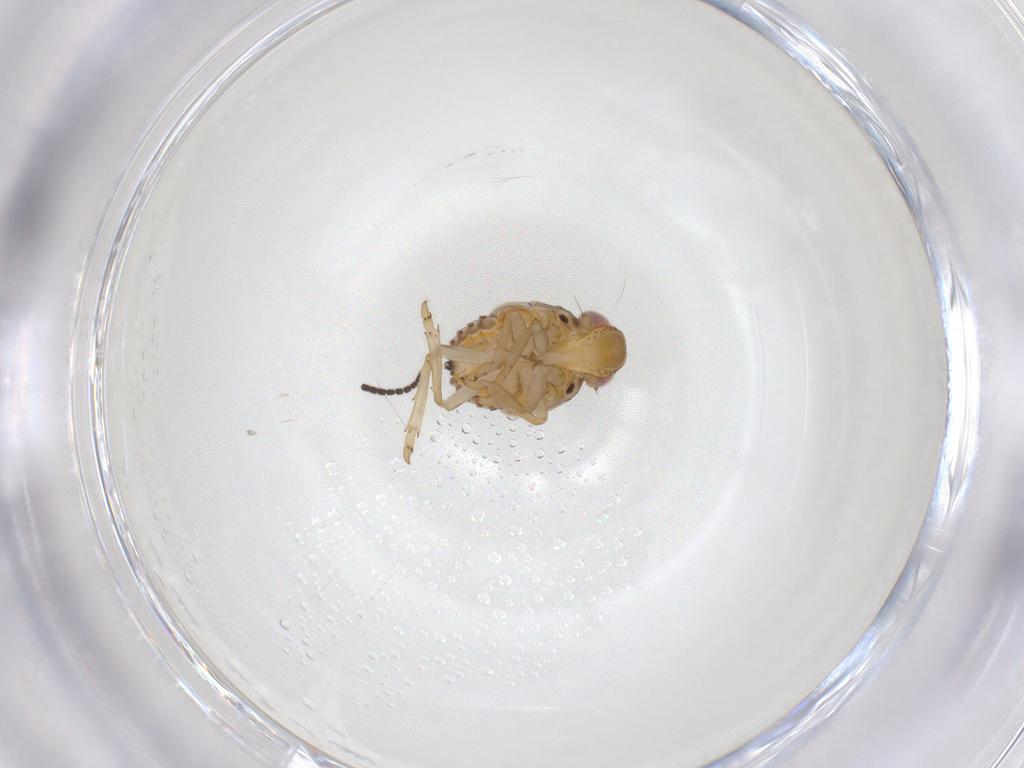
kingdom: Animalia
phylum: Arthropoda
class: Insecta
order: Hemiptera
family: Issidae
